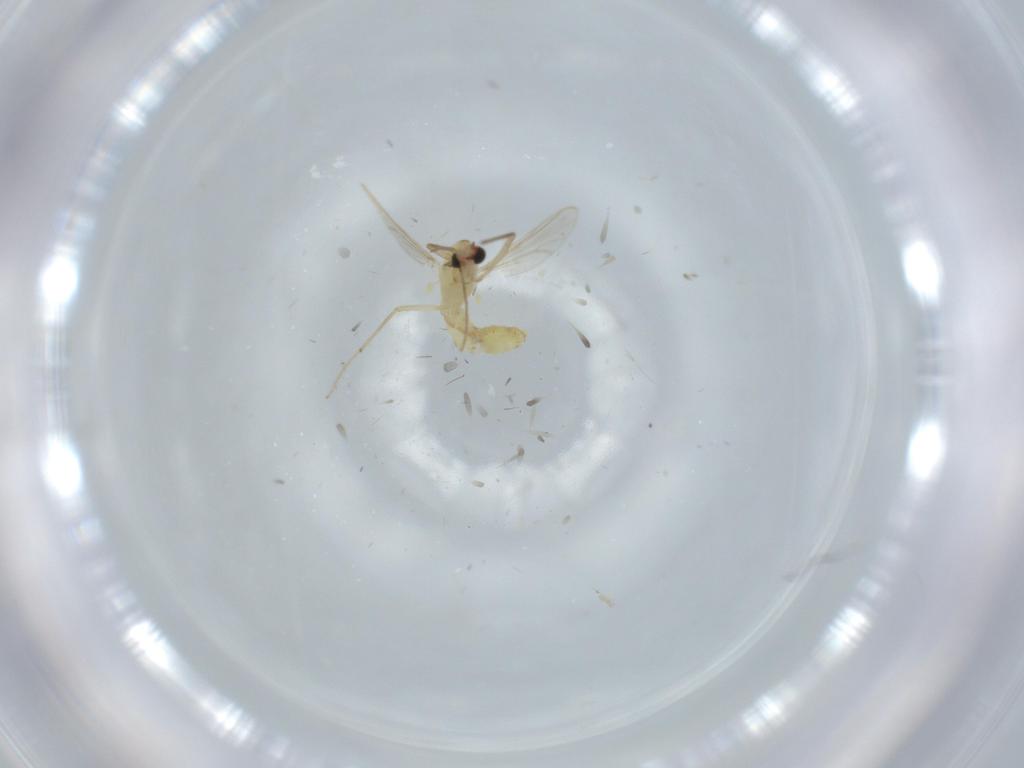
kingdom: Animalia
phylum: Arthropoda
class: Insecta
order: Diptera
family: Chironomidae
